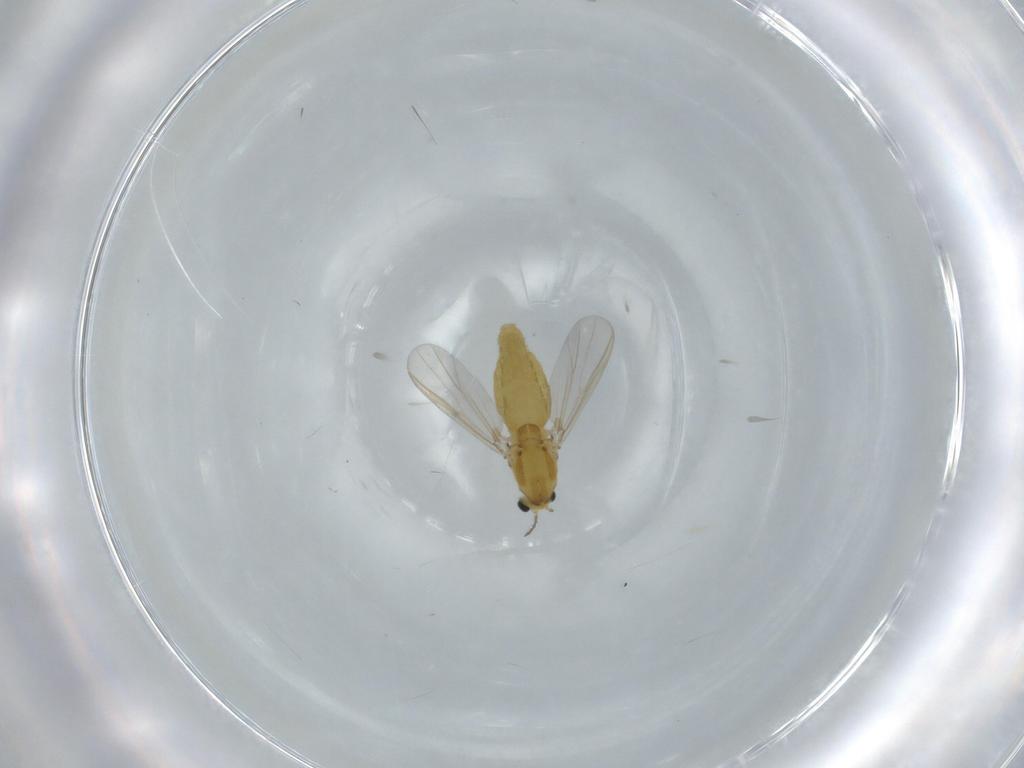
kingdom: Animalia
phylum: Arthropoda
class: Insecta
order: Diptera
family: Chironomidae
